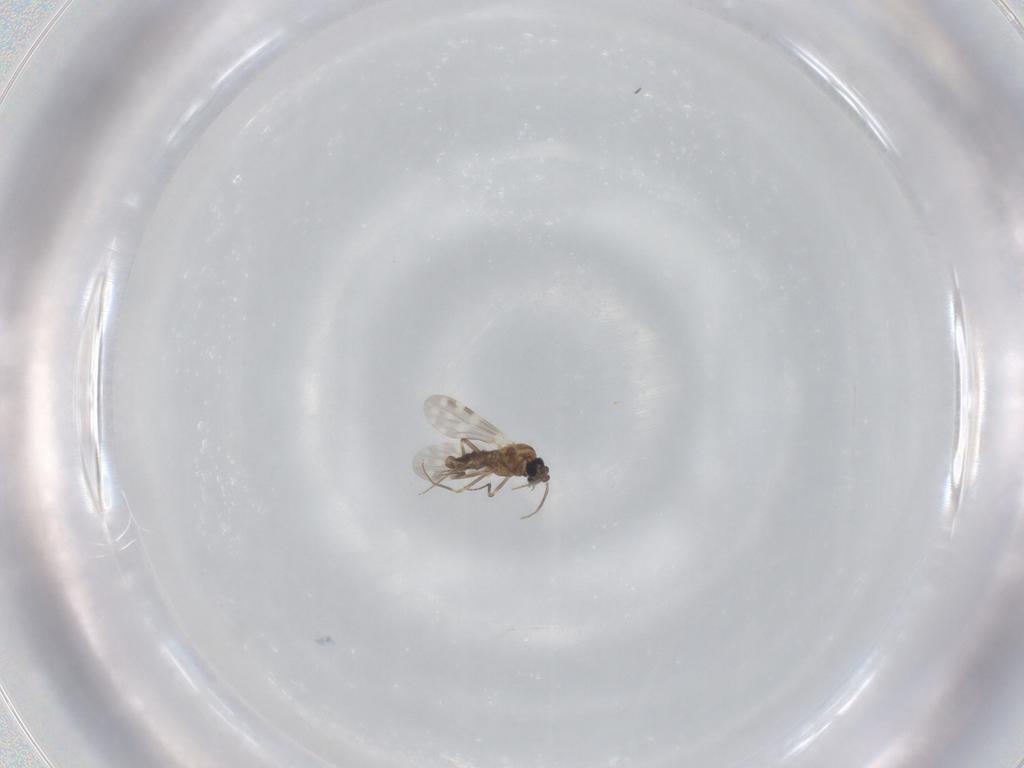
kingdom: Animalia
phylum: Arthropoda
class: Insecta
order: Diptera
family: Ceratopogonidae
